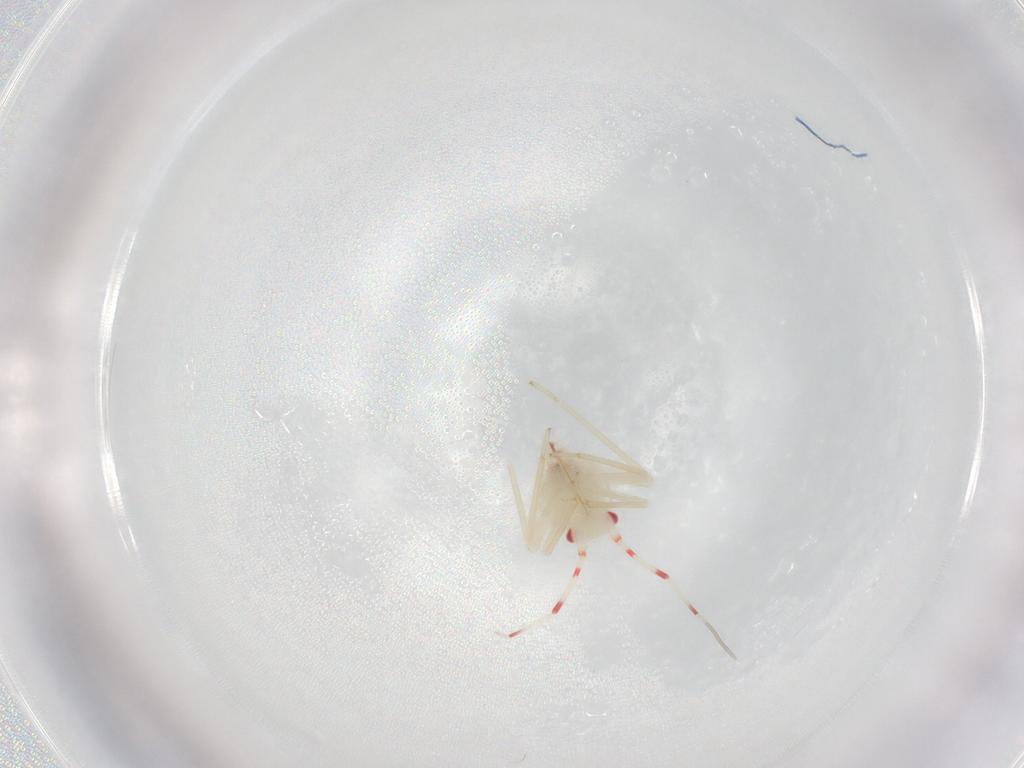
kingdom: Animalia
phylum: Arthropoda
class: Insecta
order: Hemiptera
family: Miridae
